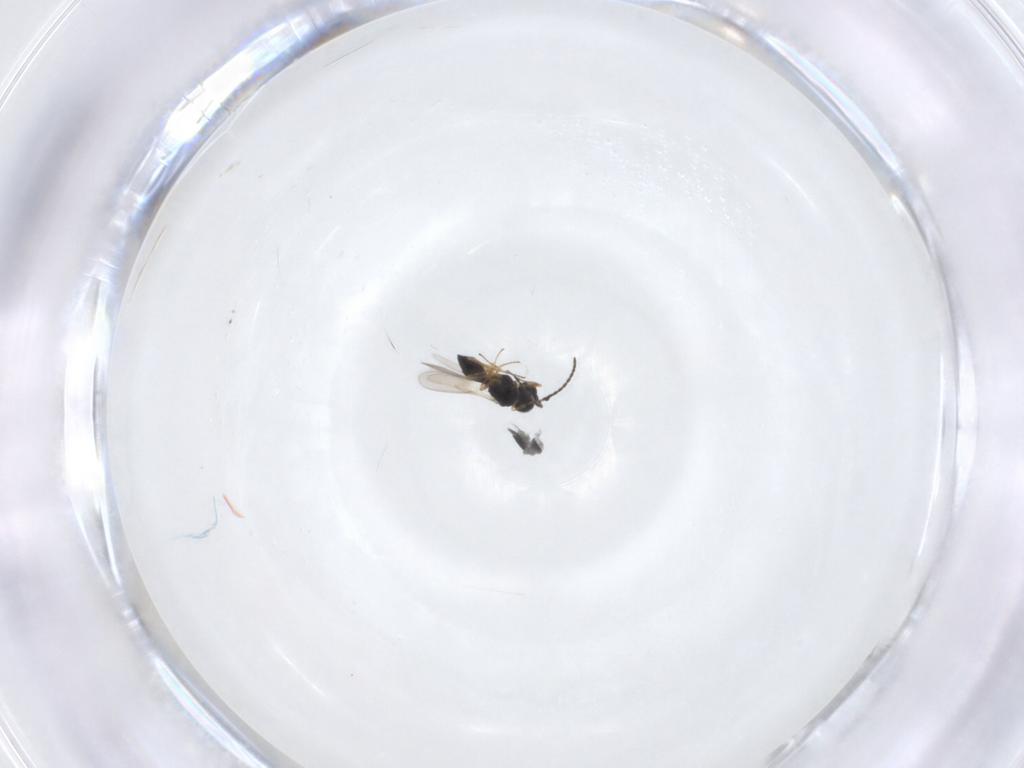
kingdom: Animalia
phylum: Arthropoda
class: Insecta
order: Hymenoptera
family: Scelionidae
